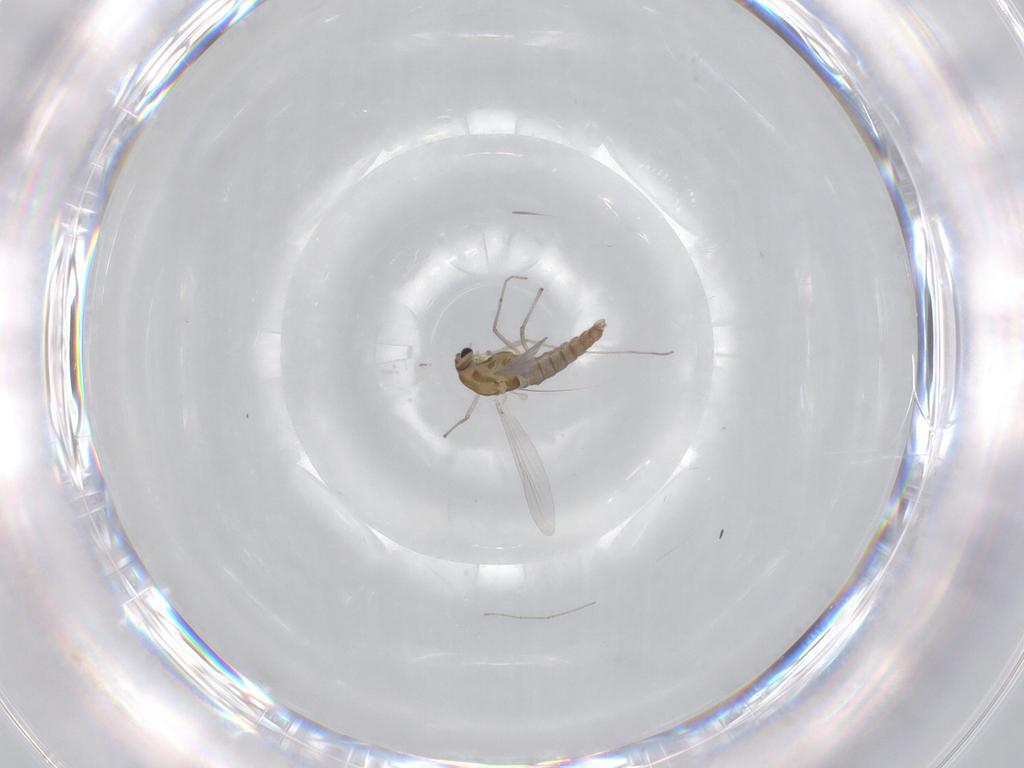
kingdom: Animalia
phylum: Arthropoda
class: Insecta
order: Diptera
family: Chironomidae
